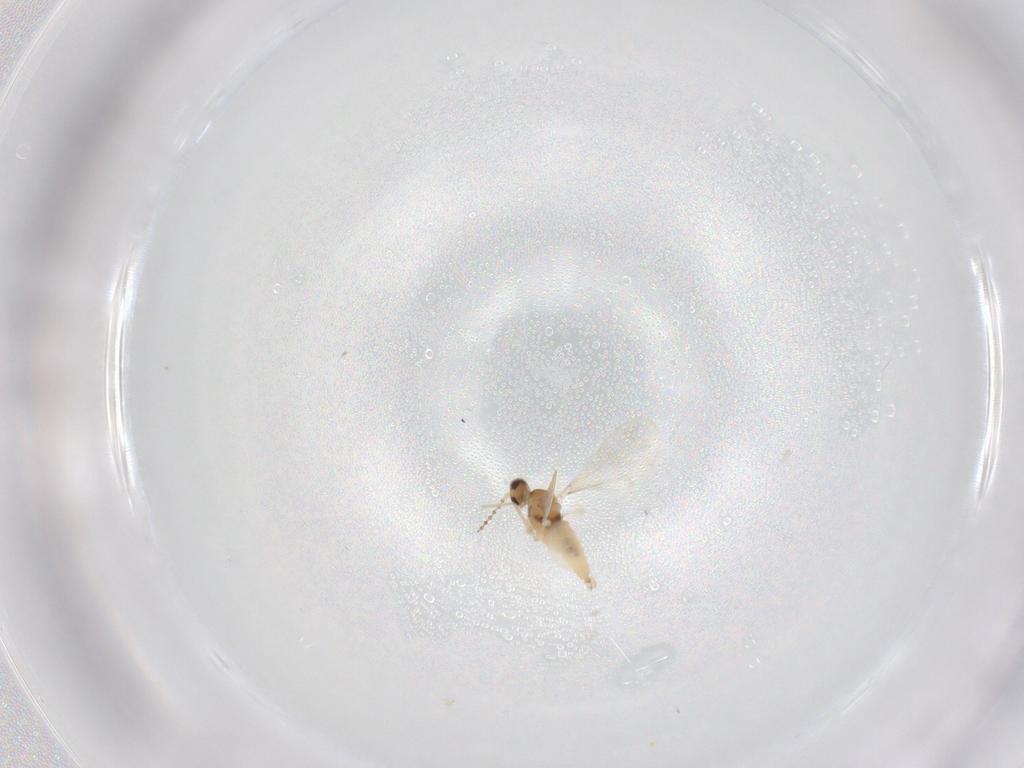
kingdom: Animalia
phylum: Arthropoda
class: Insecta
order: Diptera
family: Cecidomyiidae
